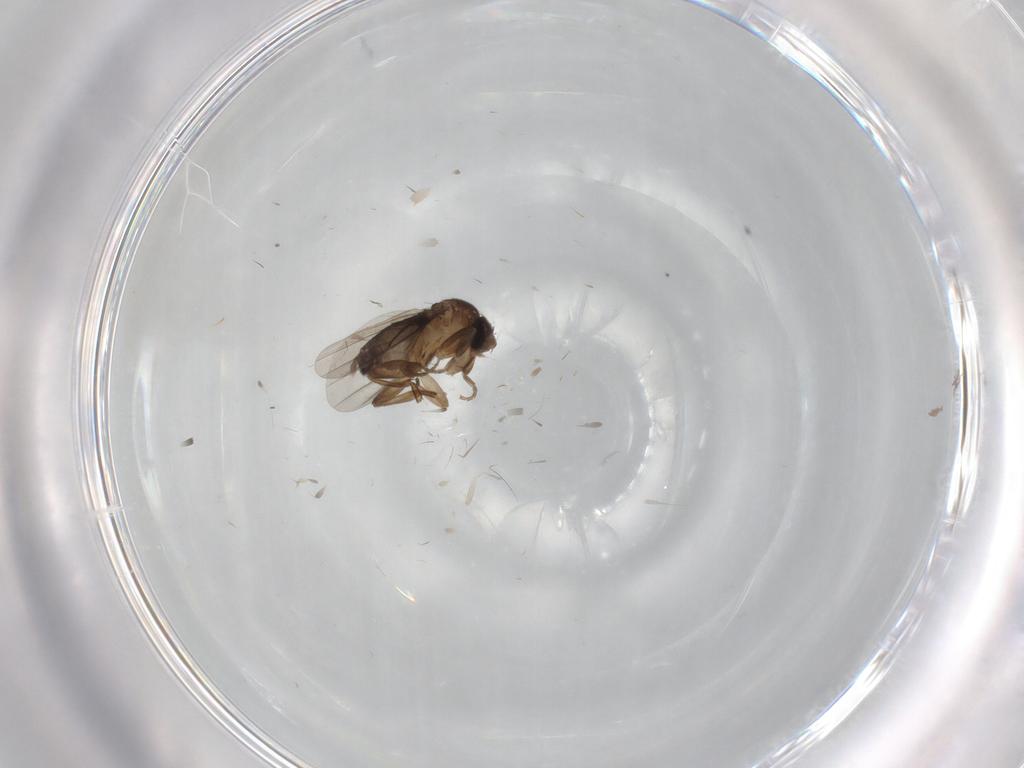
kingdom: Animalia
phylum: Arthropoda
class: Insecta
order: Diptera
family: Phoridae
